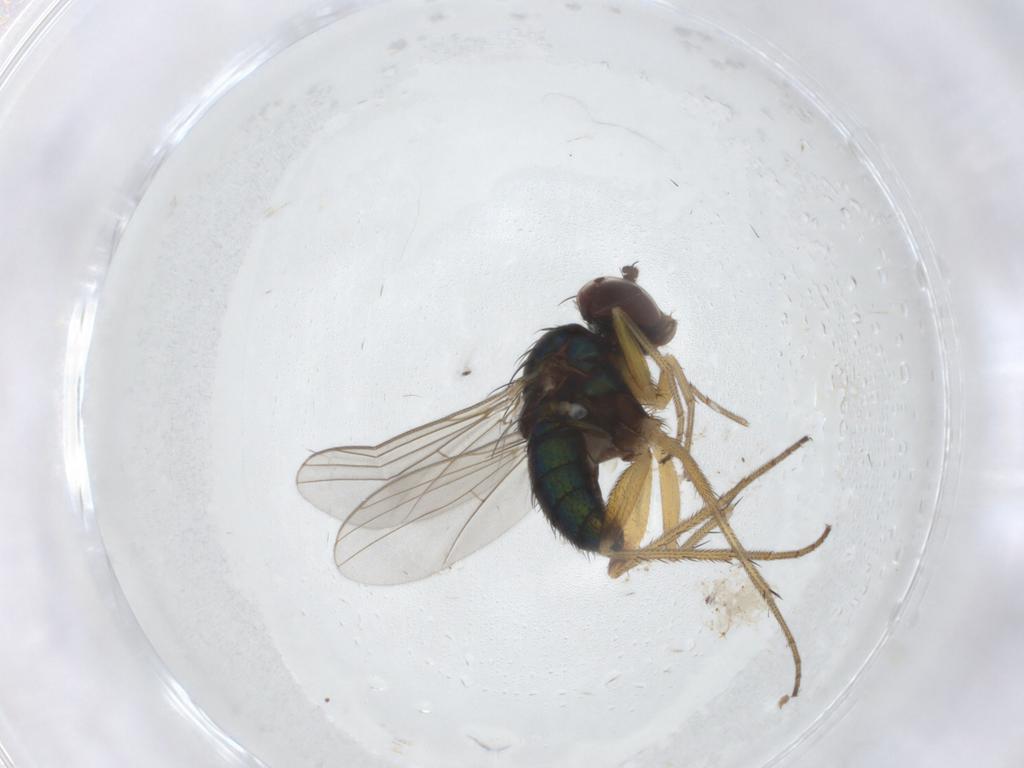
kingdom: Animalia
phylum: Arthropoda
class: Insecta
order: Diptera
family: Dolichopodidae
